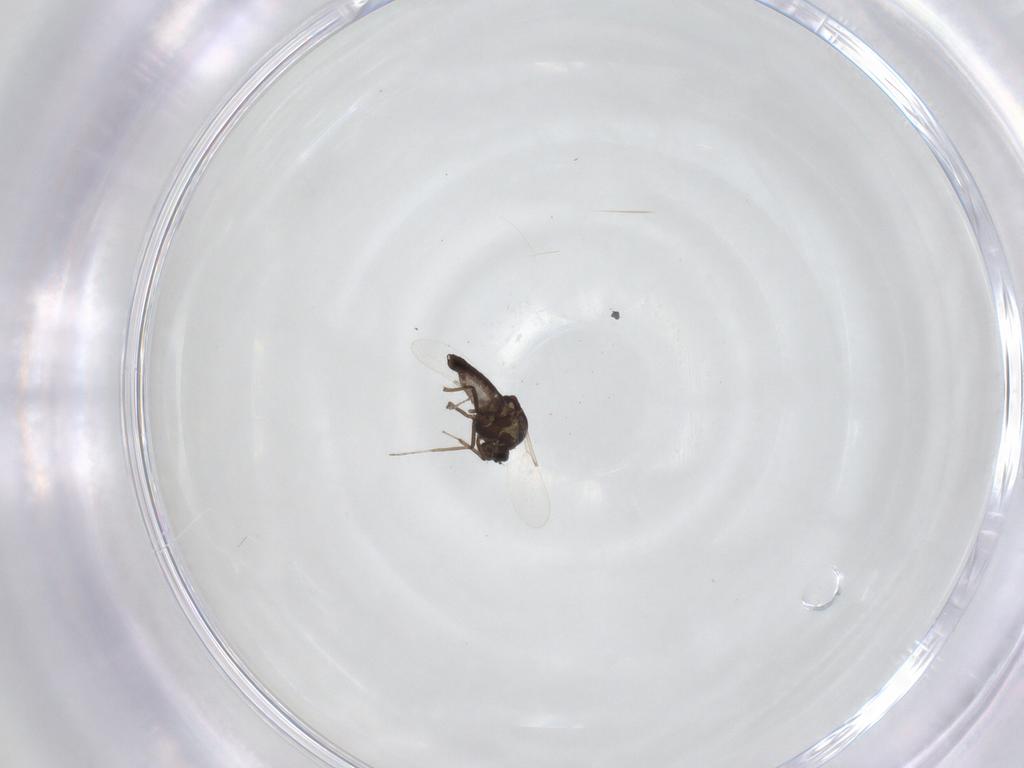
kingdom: Animalia
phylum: Arthropoda
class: Insecta
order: Diptera
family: Ceratopogonidae
